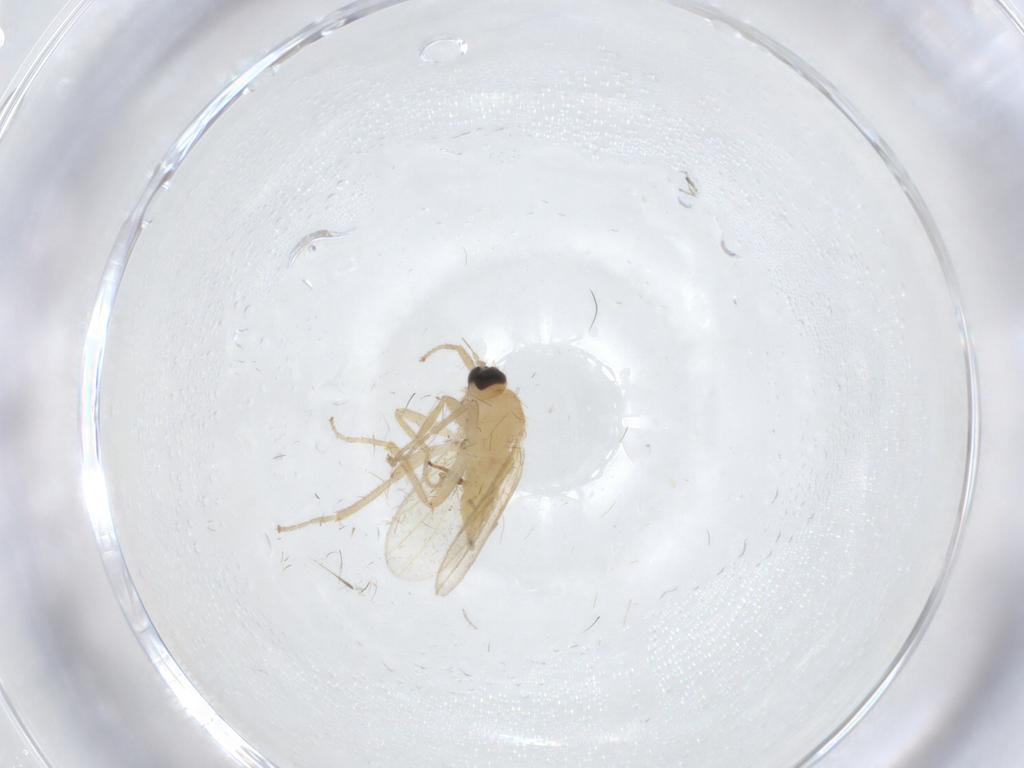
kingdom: Animalia
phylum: Arthropoda
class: Insecta
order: Diptera
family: Hybotidae
